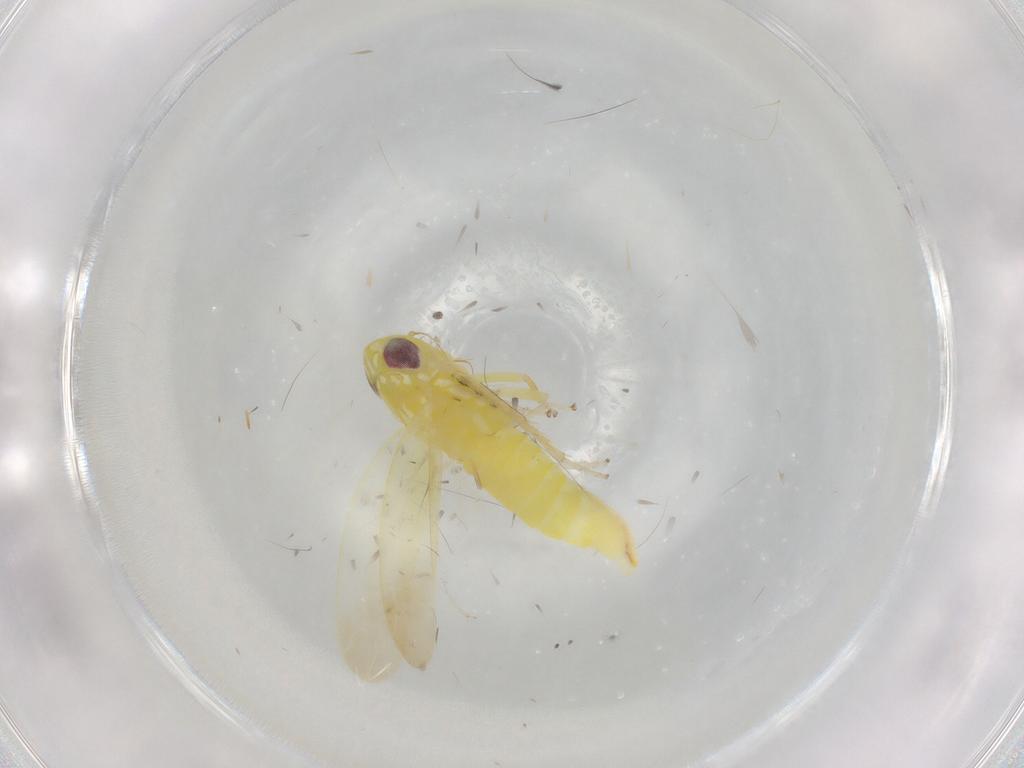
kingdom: Animalia
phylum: Arthropoda
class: Insecta
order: Hemiptera
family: Cicadellidae
